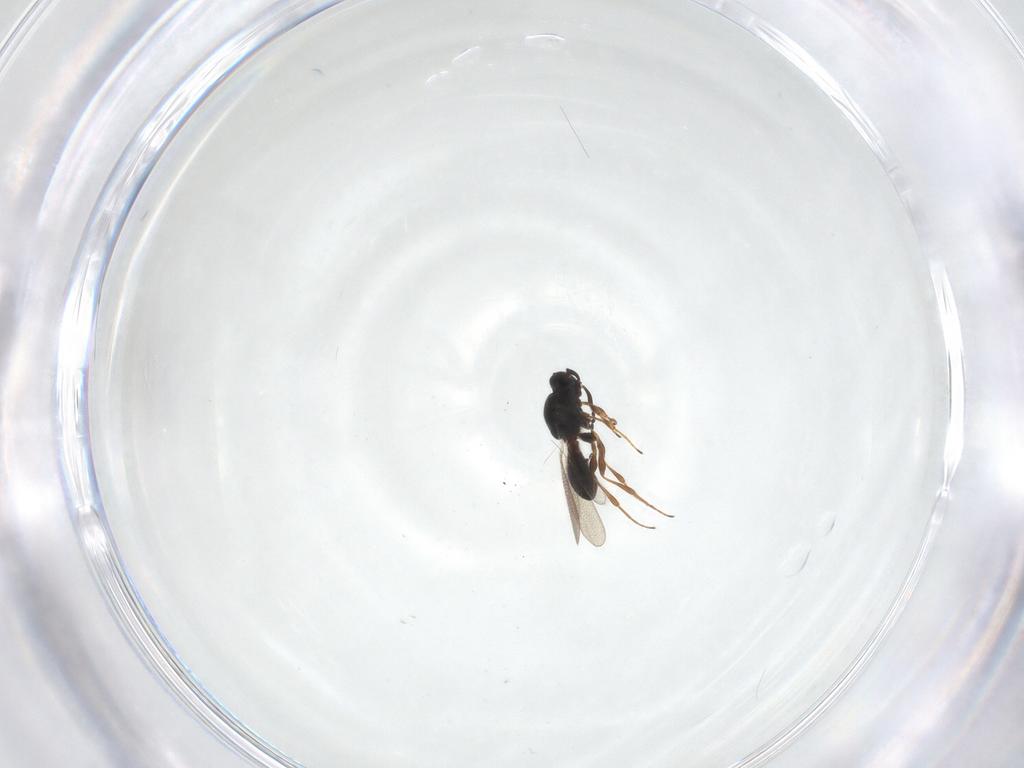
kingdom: Animalia
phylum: Arthropoda
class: Insecta
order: Hymenoptera
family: Platygastridae
